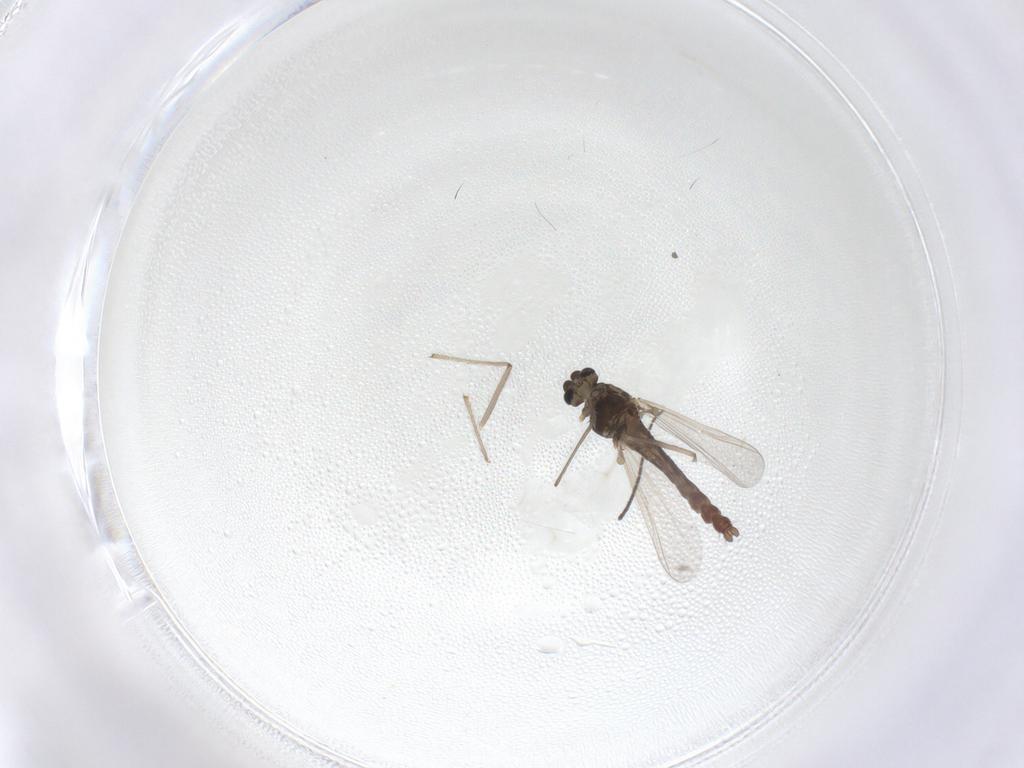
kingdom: Animalia
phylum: Arthropoda
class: Insecta
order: Diptera
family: Chironomidae
